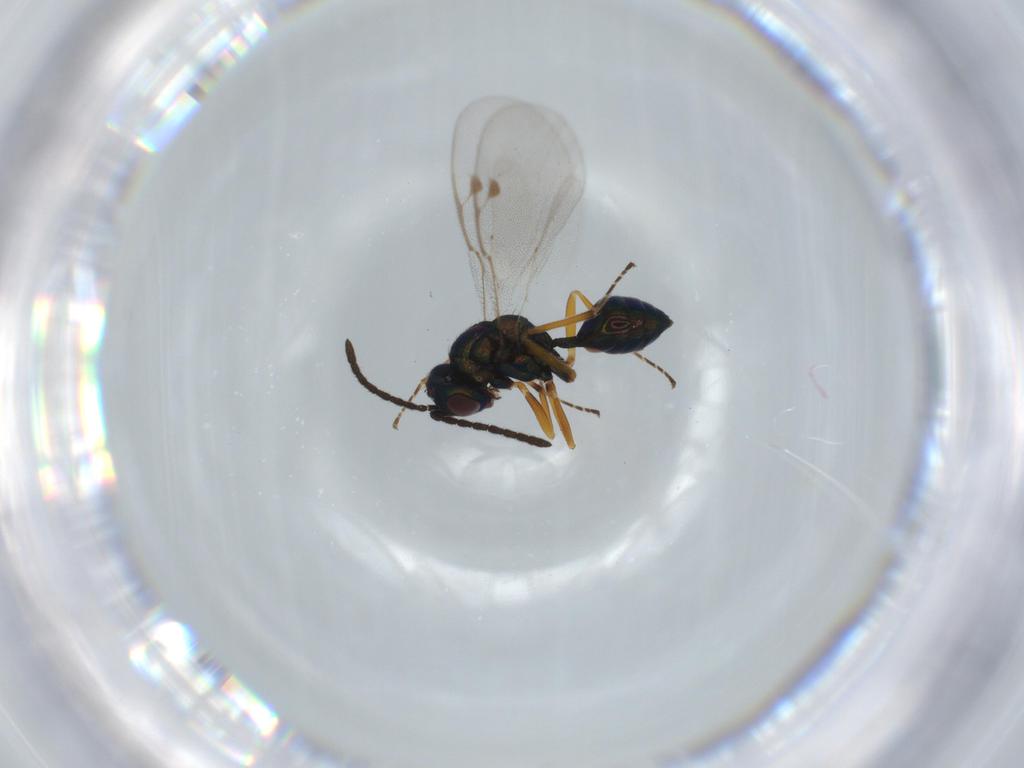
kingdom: Animalia
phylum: Arthropoda
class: Insecta
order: Hymenoptera
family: Pteromalidae
